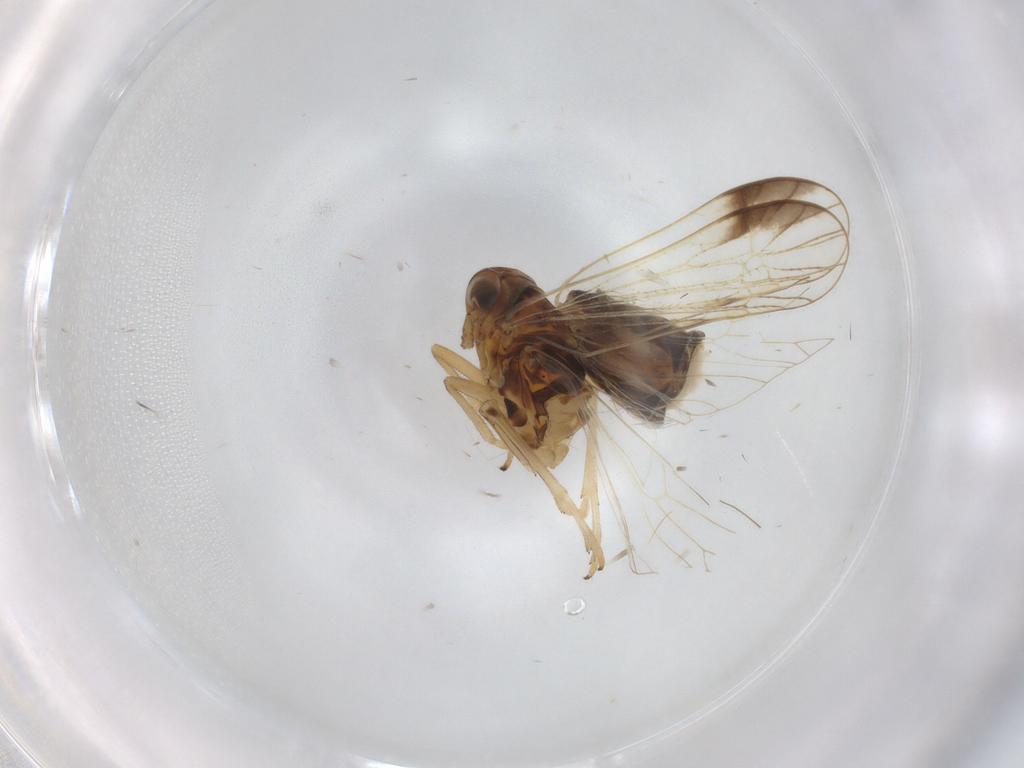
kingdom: Animalia
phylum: Arthropoda
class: Insecta
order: Hemiptera
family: Delphacidae
